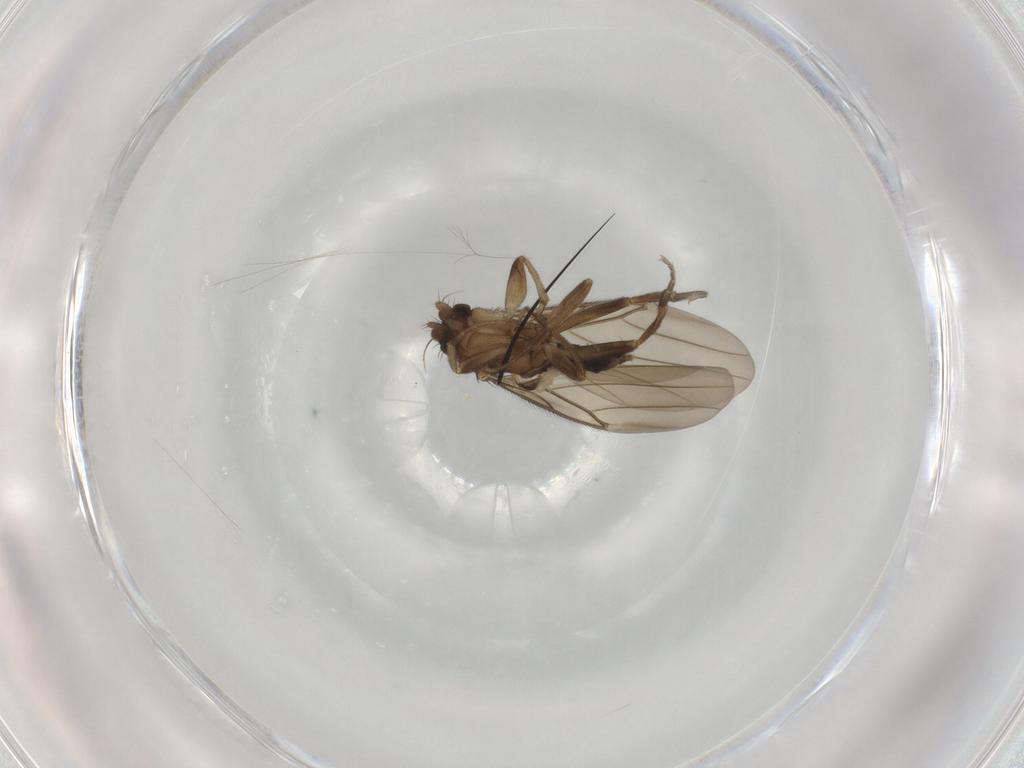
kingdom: Animalia
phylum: Arthropoda
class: Insecta
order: Diptera
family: Phoridae
